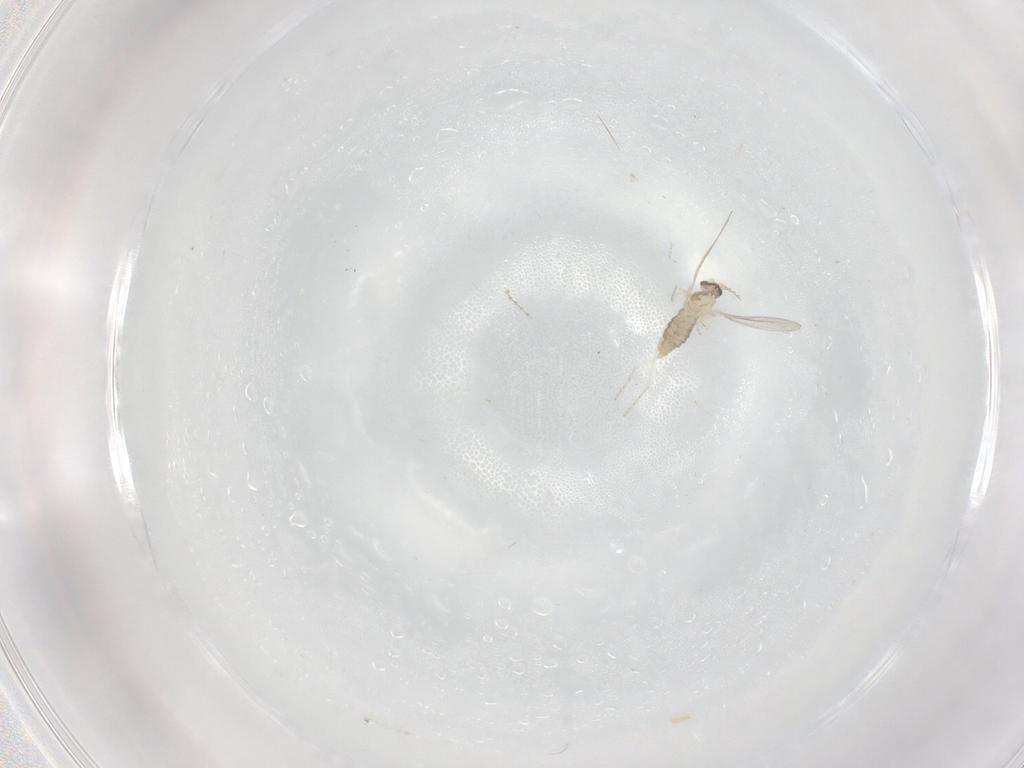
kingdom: Animalia
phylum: Arthropoda
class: Insecta
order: Diptera
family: Cecidomyiidae
